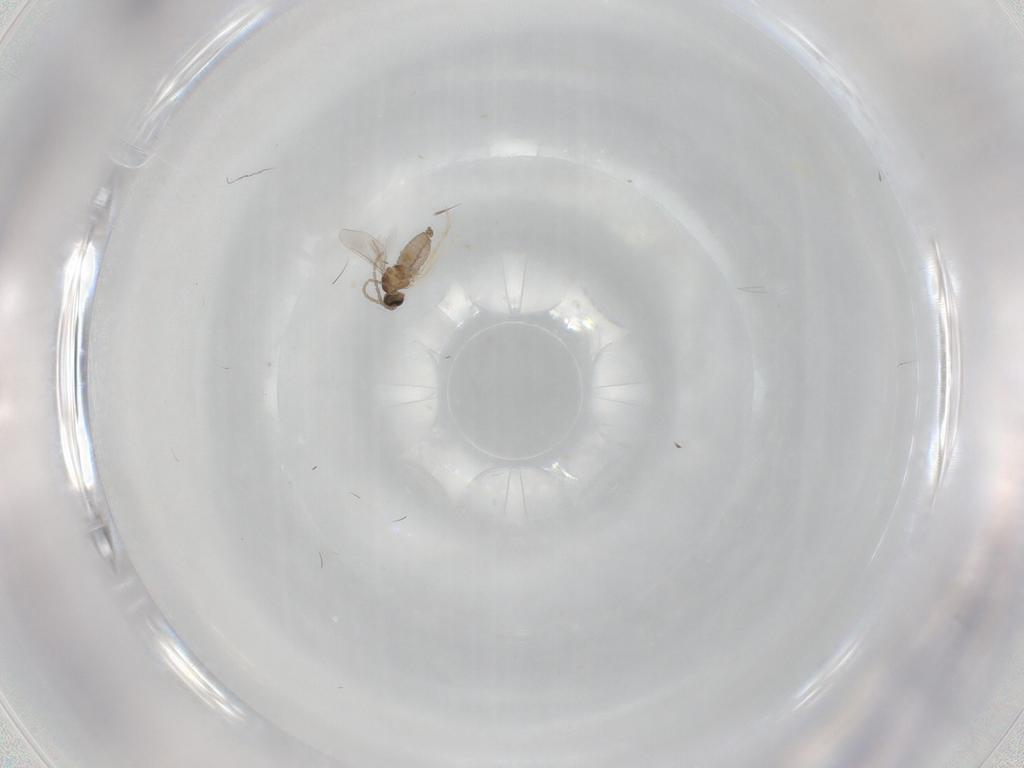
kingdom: Animalia
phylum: Arthropoda
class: Insecta
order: Diptera
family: Cecidomyiidae
